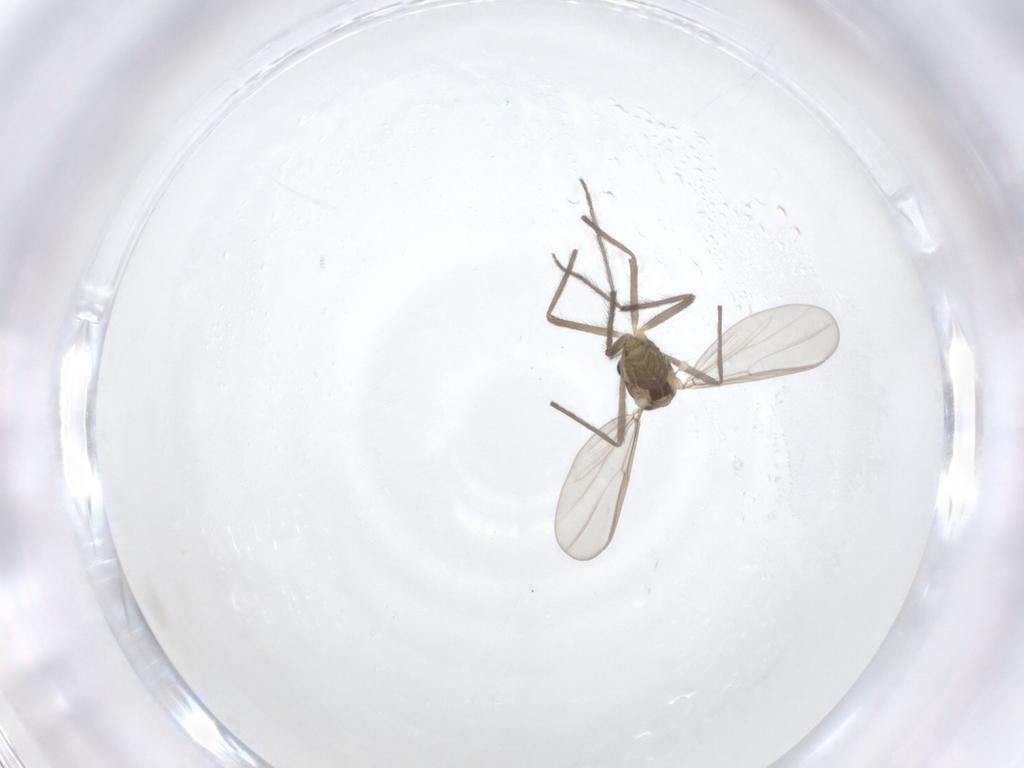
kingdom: Animalia
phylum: Arthropoda
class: Insecta
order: Diptera
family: Chironomidae
